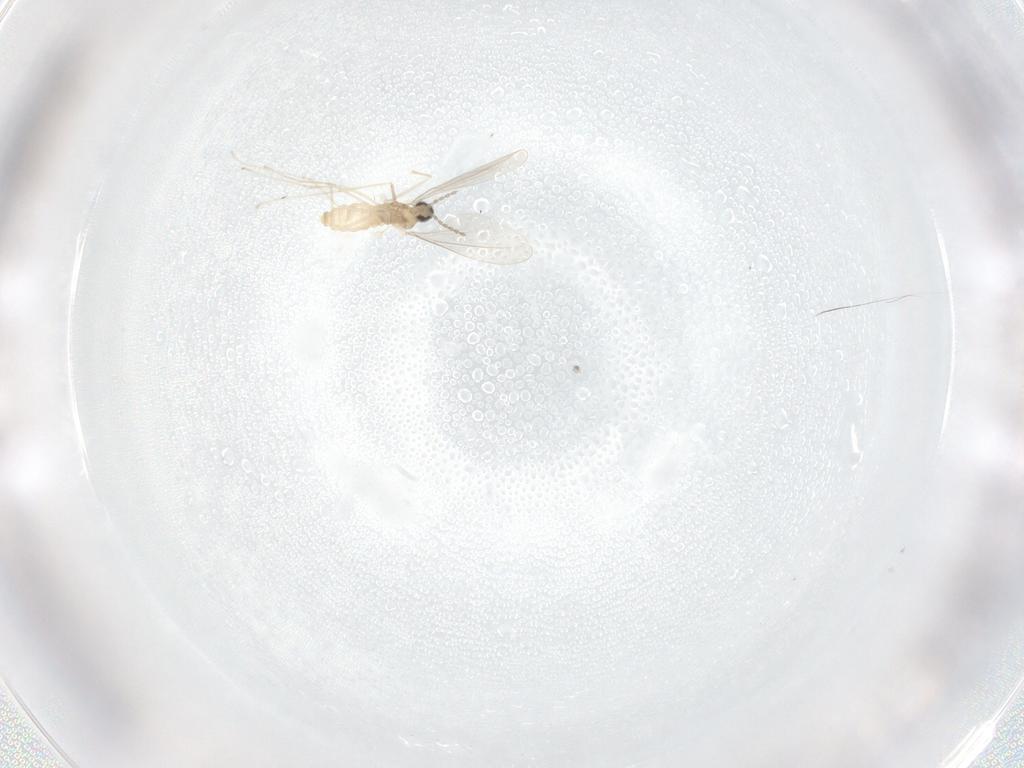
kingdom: Animalia
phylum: Arthropoda
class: Insecta
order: Diptera
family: Cecidomyiidae
